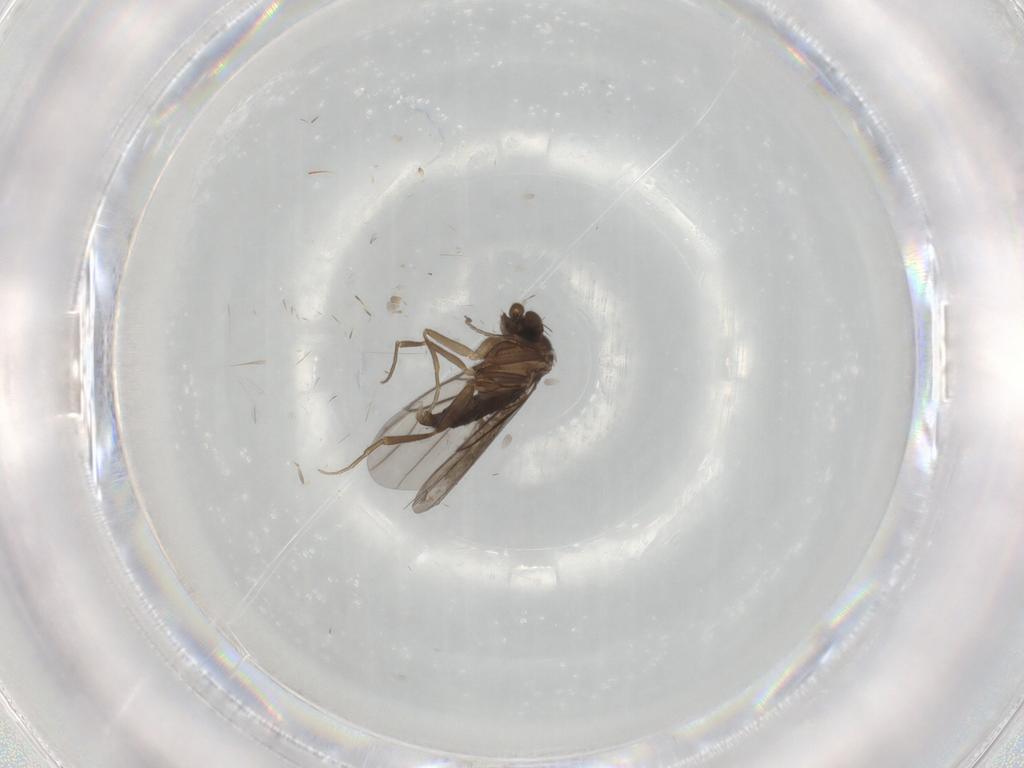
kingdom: Animalia
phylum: Arthropoda
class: Insecta
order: Diptera
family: Phoridae
